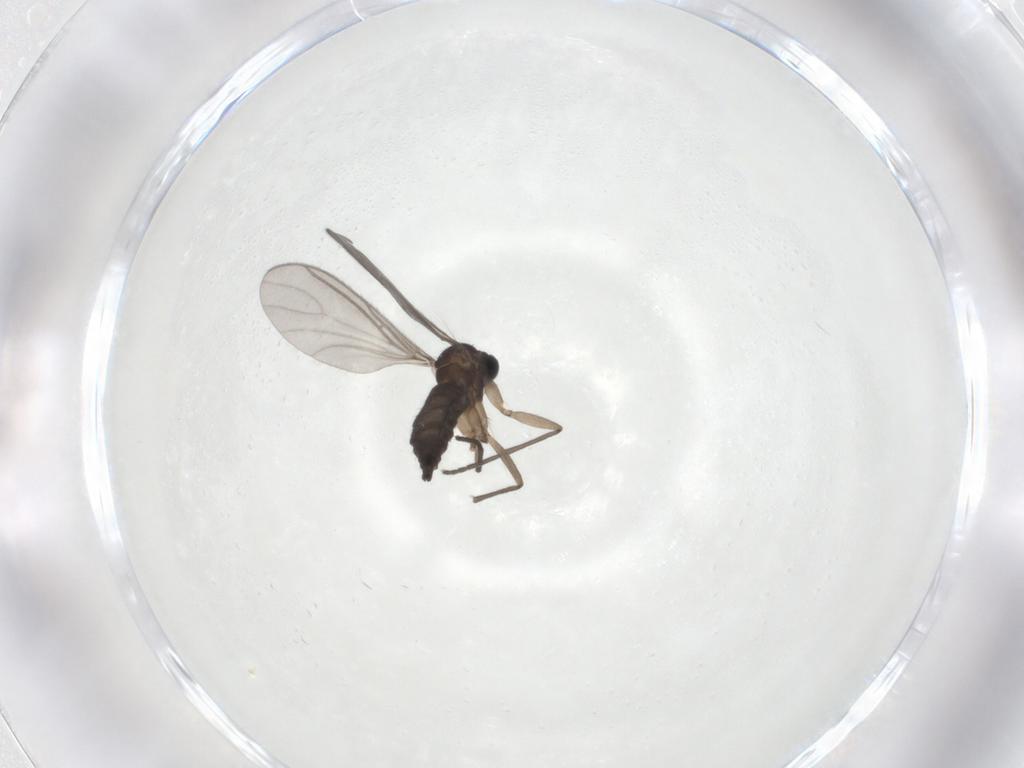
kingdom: Animalia
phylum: Arthropoda
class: Insecta
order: Diptera
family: Sciaridae
